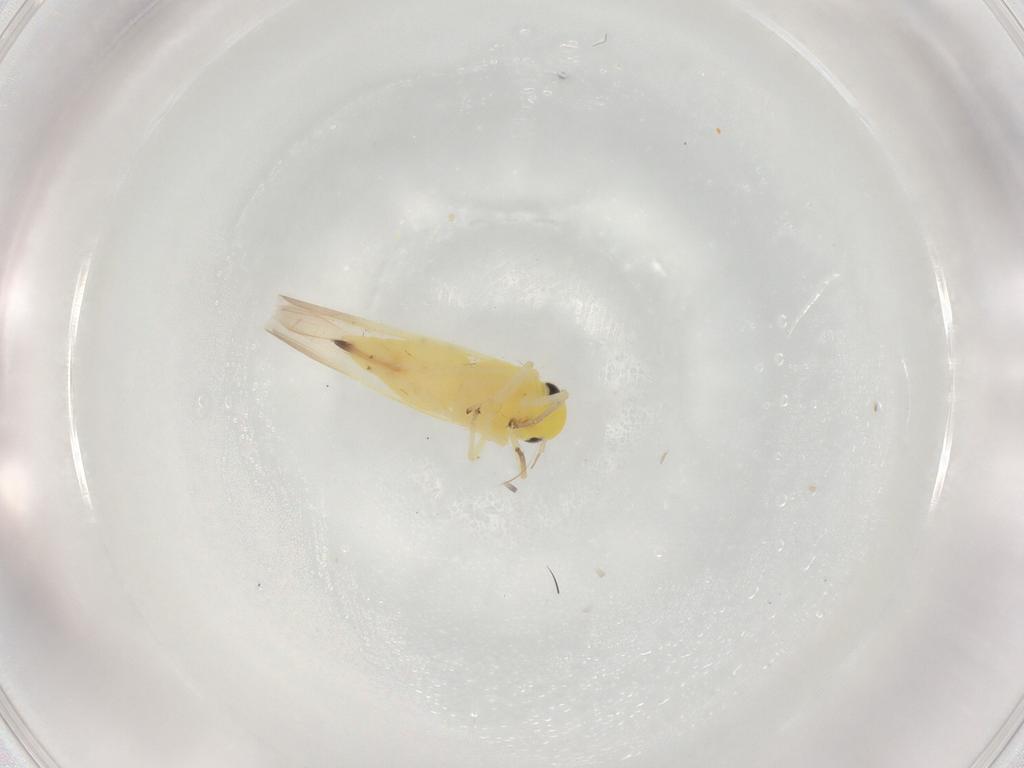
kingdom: Animalia
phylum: Arthropoda
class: Insecta
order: Hemiptera
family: Cicadellidae
